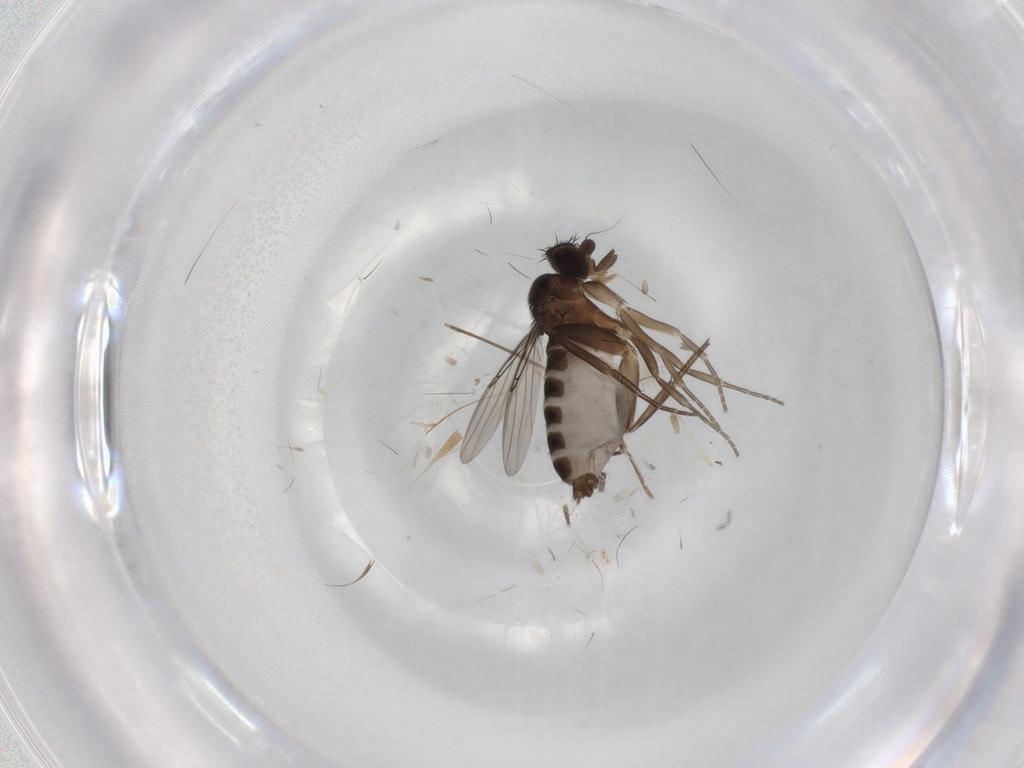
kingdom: Animalia
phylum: Arthropoda
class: Insecta
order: Diptera
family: Phoridae
